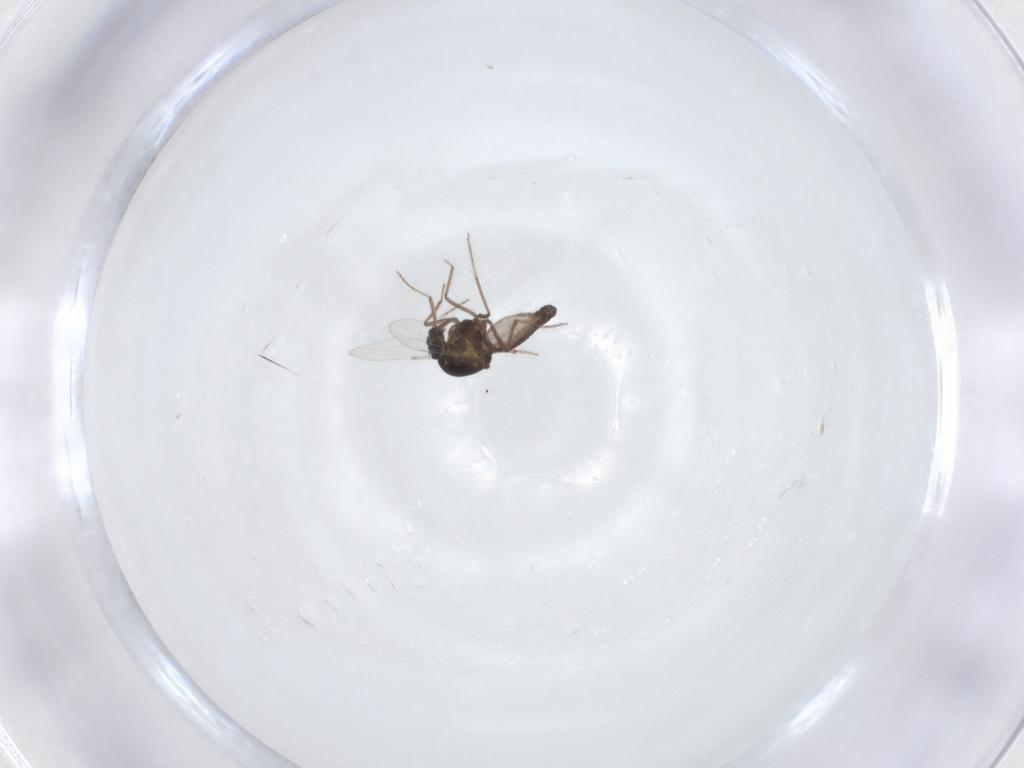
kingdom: Animalia
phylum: Arthropoda
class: Insecta
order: Diptera
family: Ceratopogonidae
